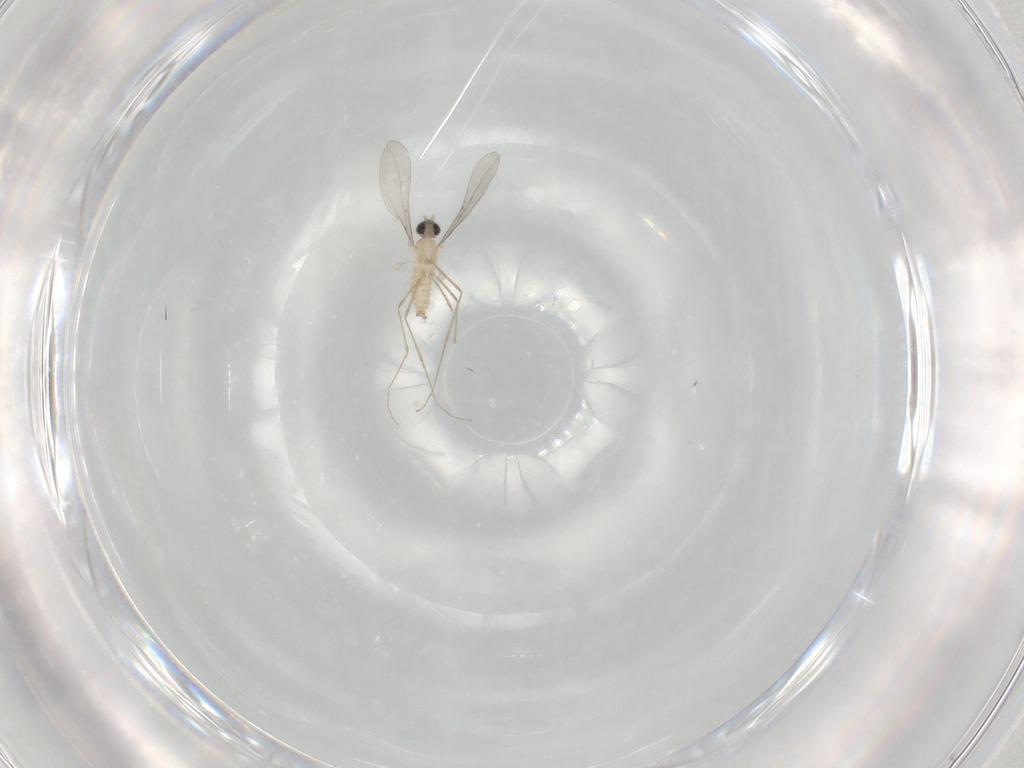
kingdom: Animalia
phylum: Arthropoda
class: Insecta
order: Diptera
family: Cecidomyiidae
